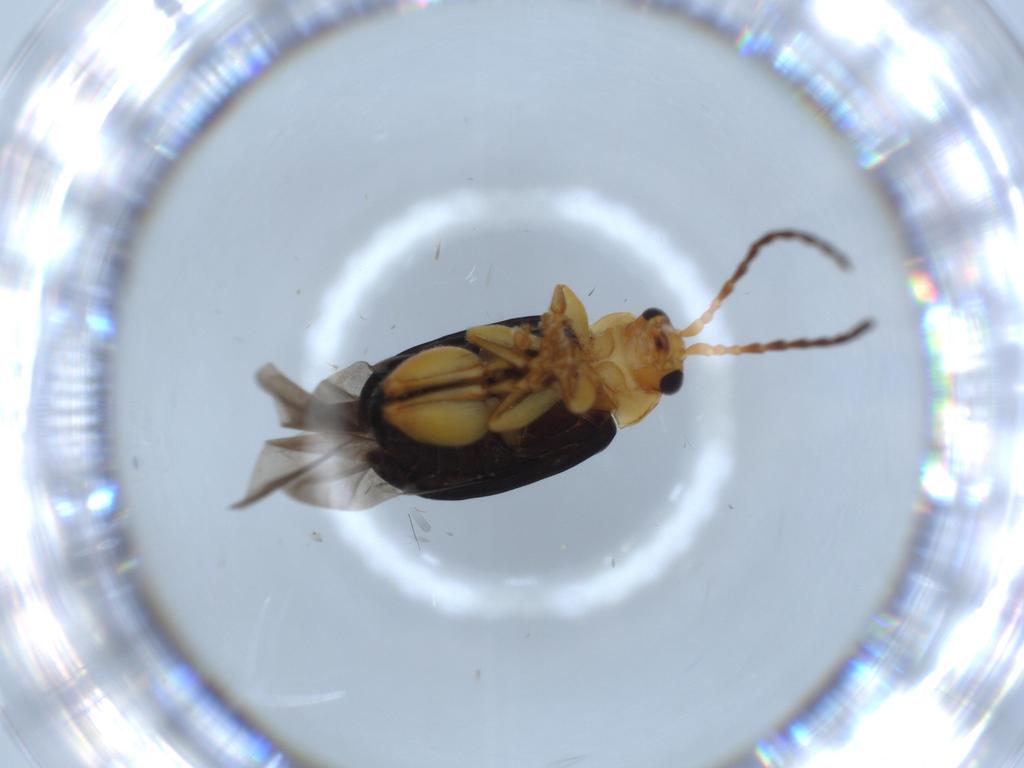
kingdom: Animalia
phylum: Arthropoda
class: Insecta
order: Coleoptera
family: Chrysomelidae
